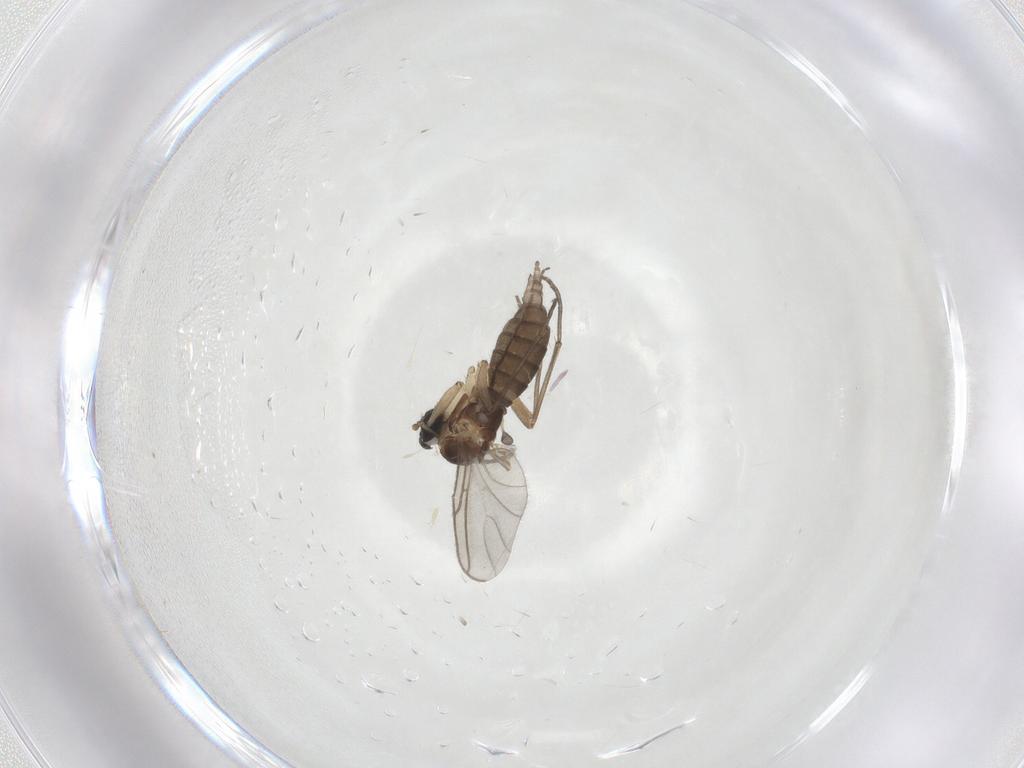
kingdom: Animalia
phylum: Arthropoda
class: Insecta
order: Diptera
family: Sciaridae
